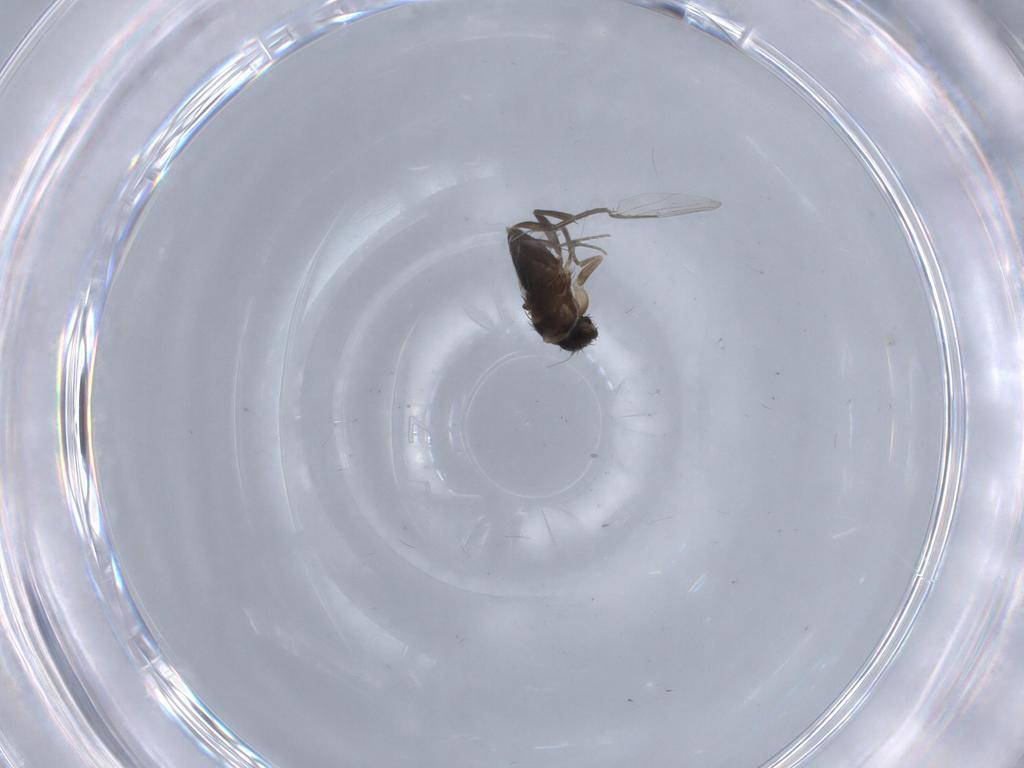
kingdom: Animalia
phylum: Arthropoda
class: Insecta
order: Diptera
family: Phoridae
